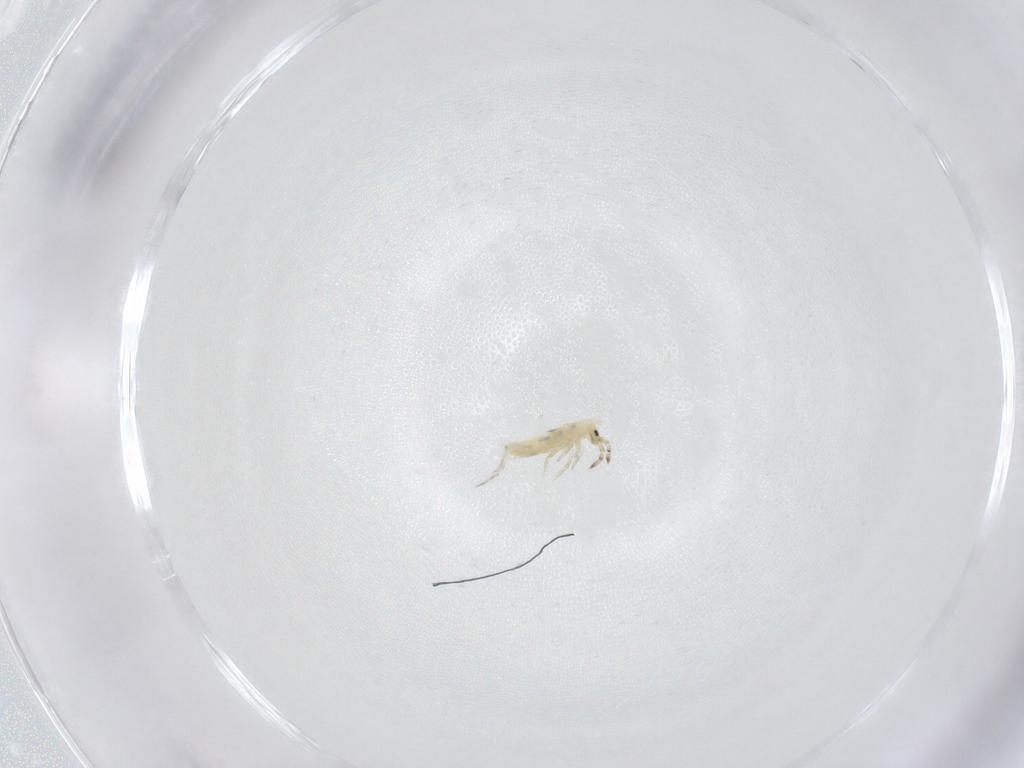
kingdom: Animalia
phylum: Arthropoda
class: Collembola
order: Entomobryomorpha
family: Entomobryidae
